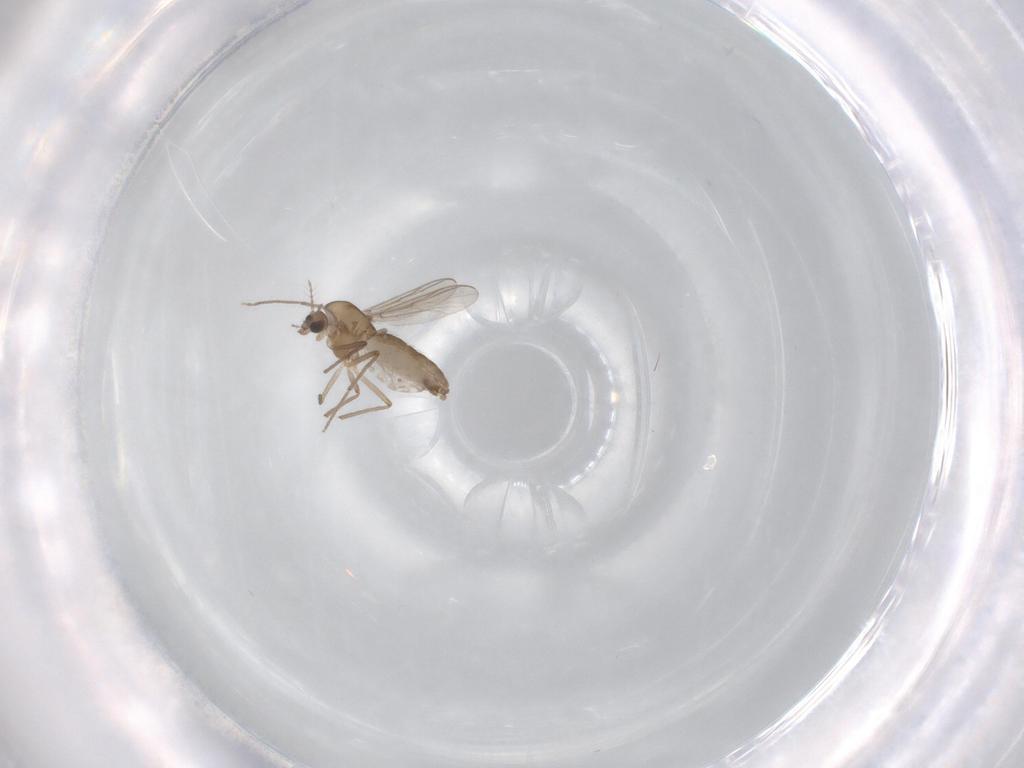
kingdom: Animalia
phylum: Arthropoda
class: Insecta
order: Diptera
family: Chironomidae
